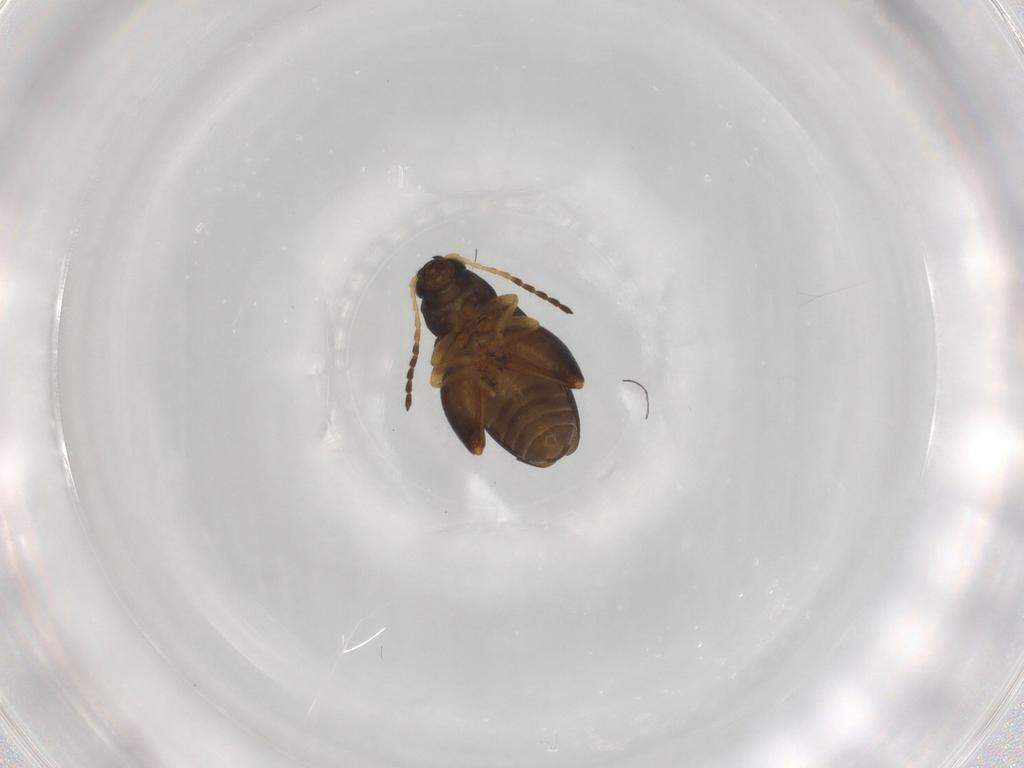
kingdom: Animalia
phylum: Arthropoda
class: Insecta
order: Coleoptera
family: Chrysomelidae
